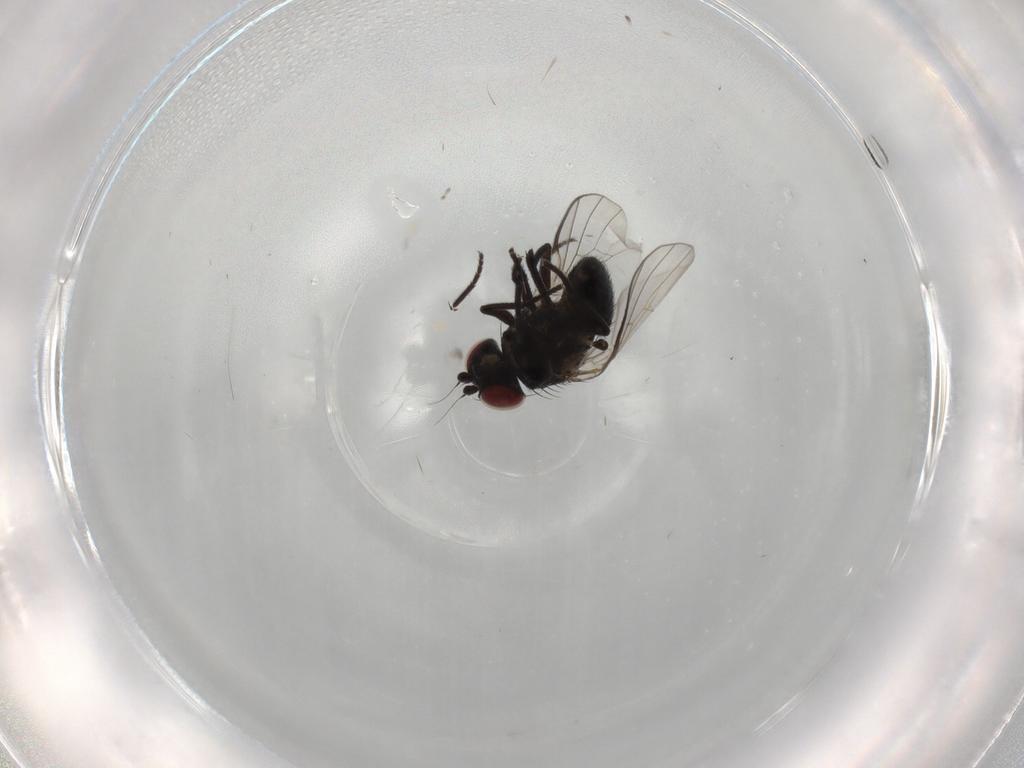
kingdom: Animalia
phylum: Arthropoda
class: Insecta
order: Diptera
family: Agromyzidae
